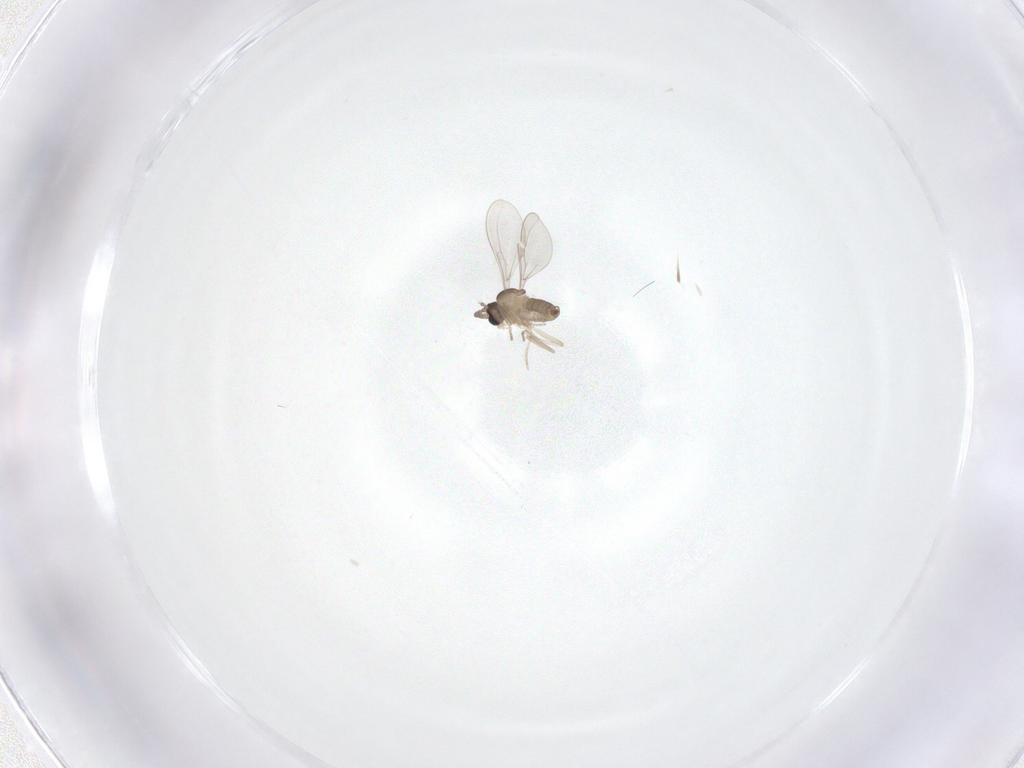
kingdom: Animalia
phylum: Arthropoda
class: Insecta
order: Diptera
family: Cecidomyiidae
